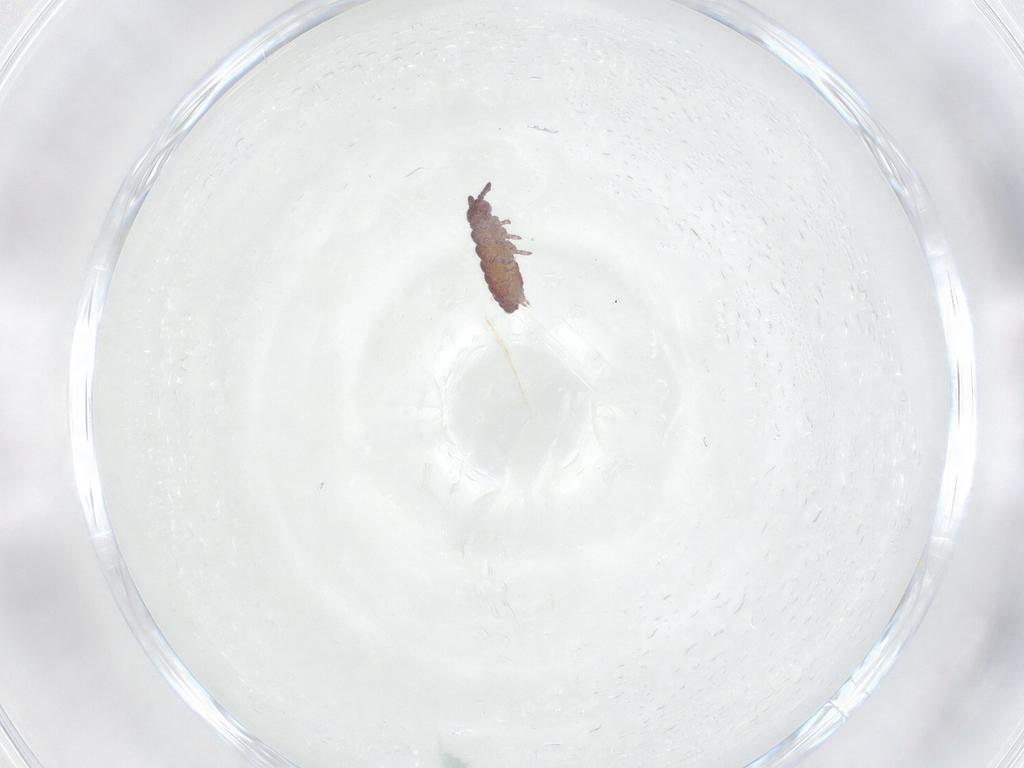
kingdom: Animalia
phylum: Arthropoda
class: Collembola
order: Poduromorpha
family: Hypogastruridae
